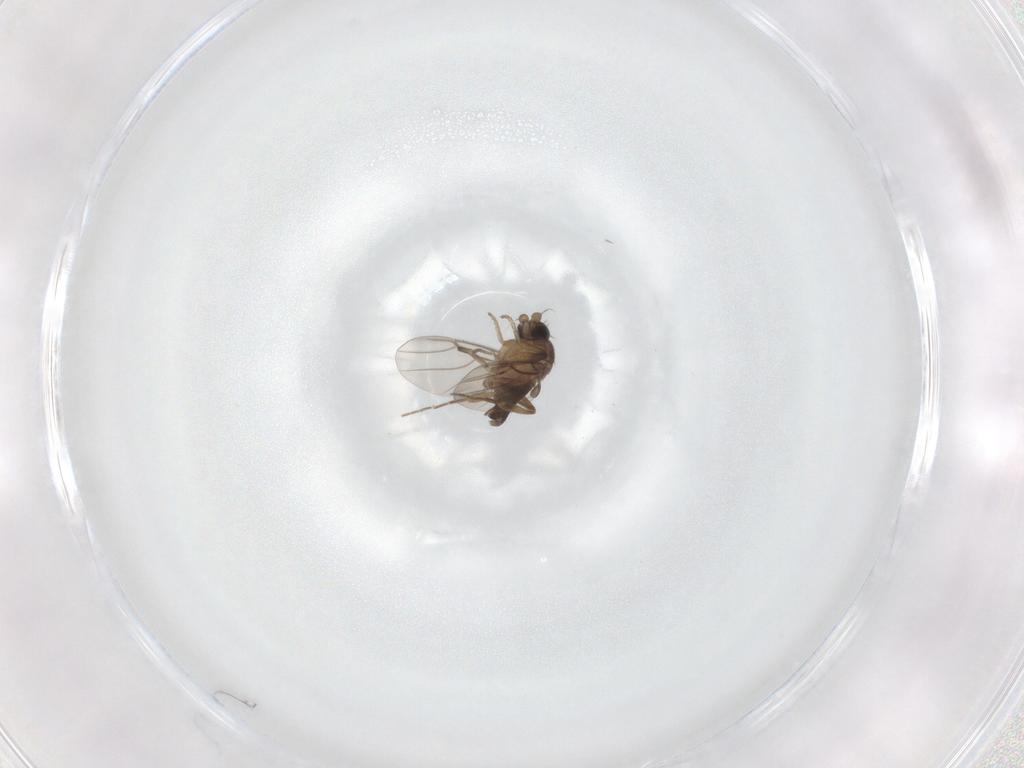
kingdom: Animalia
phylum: Arthropoda
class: Insecta
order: Diptera
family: Phoridae
